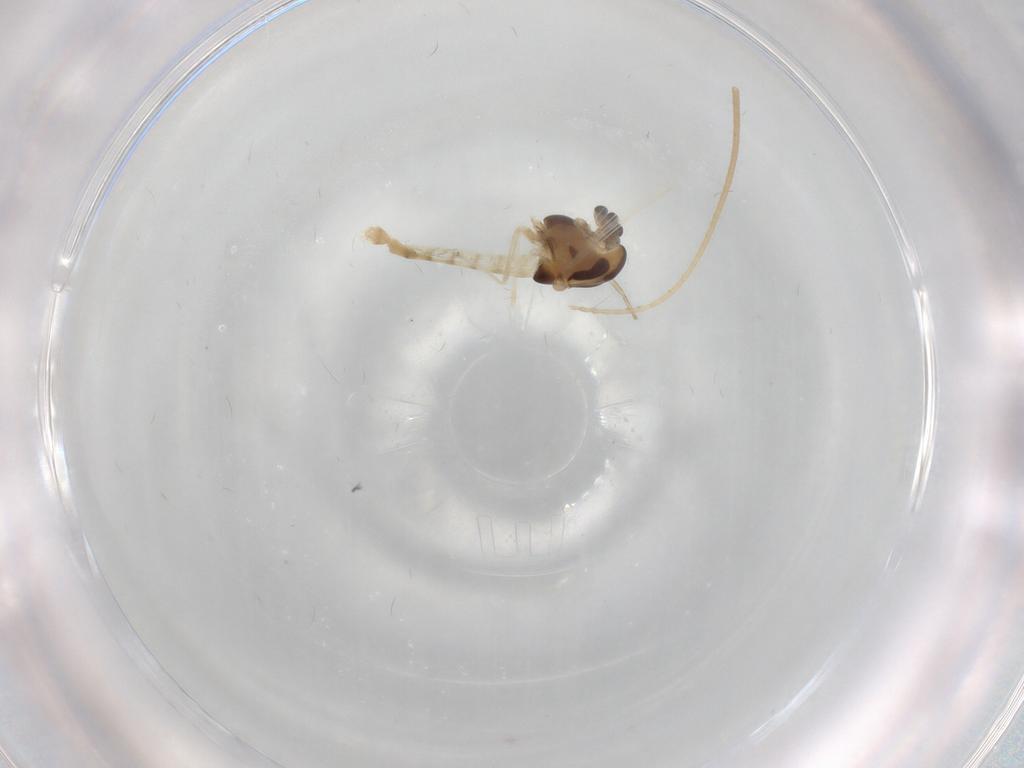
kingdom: Animalia
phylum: Arthropoda
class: Insecta
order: Diptera
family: Chironomidae
